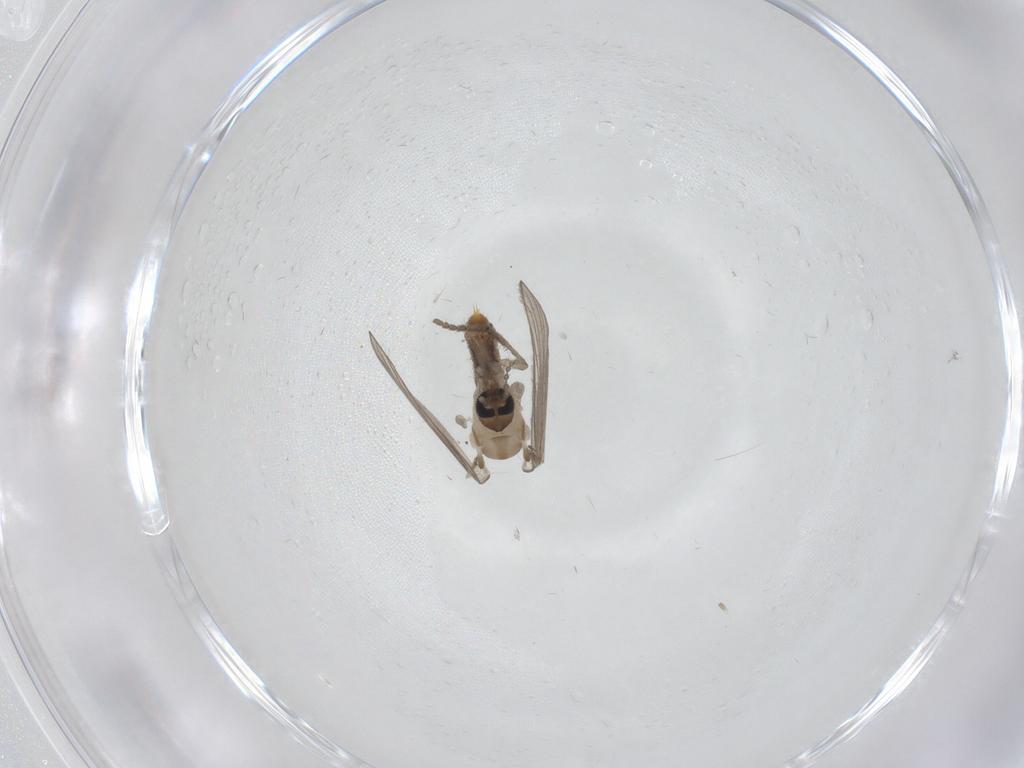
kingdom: Animalia
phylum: Arthropoda
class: Insecta
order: Diptera
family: Psychodidae
